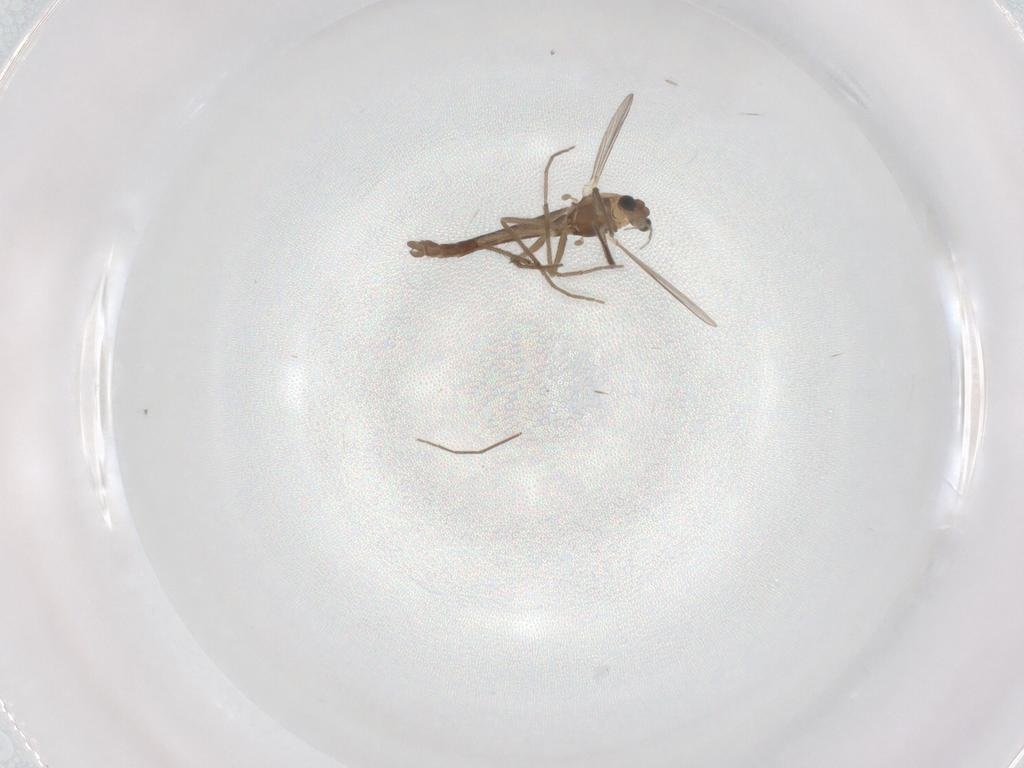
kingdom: Animalia
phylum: Arthropoda
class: Insecta
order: Diptera
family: Chironomidae
